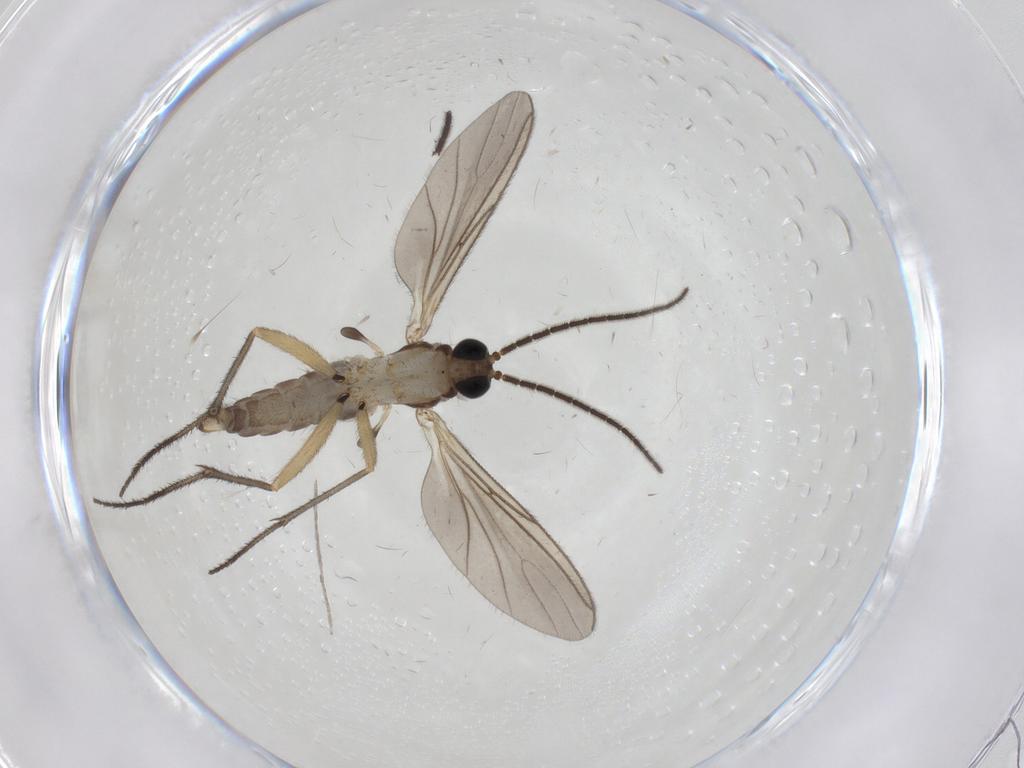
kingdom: Animalia
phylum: Arthropoda
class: Insecta
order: Diptera
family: Sciaridae
